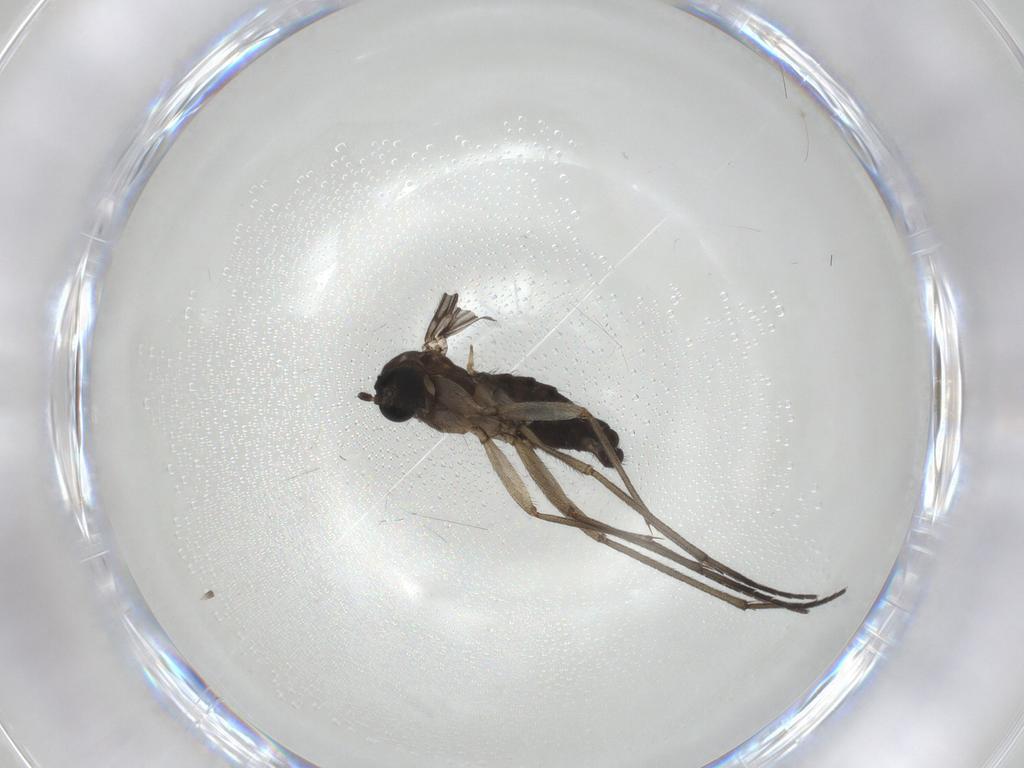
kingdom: Animalia
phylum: Arthropoda
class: Insecta
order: Diptera
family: Sciaridae
